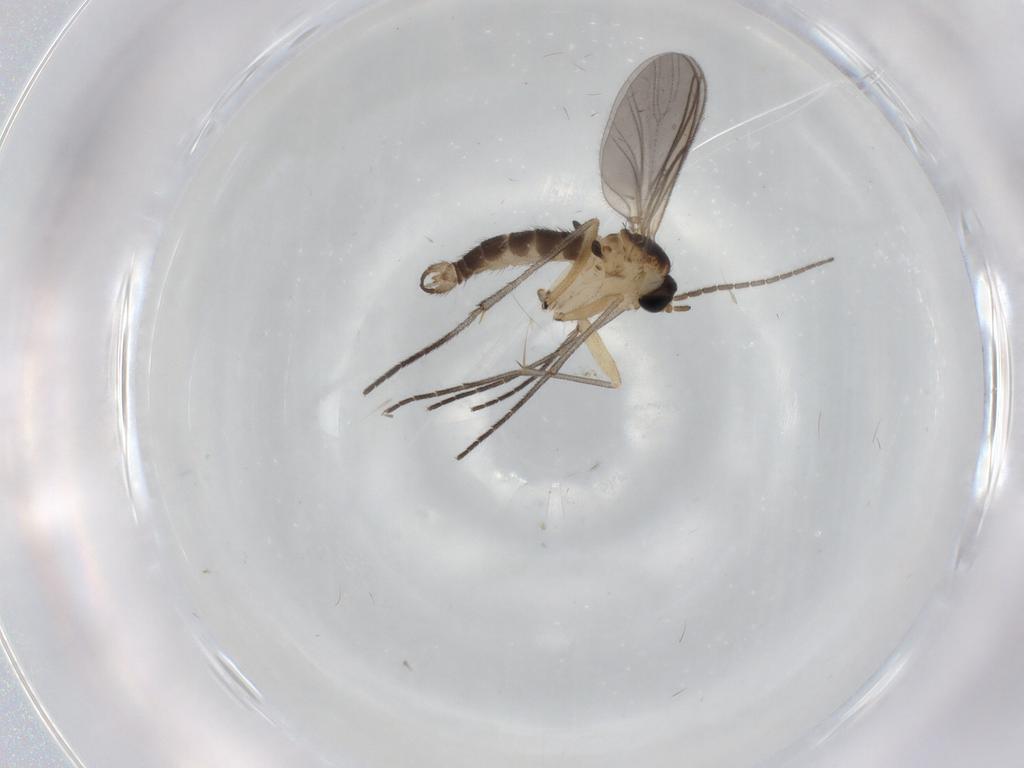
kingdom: Animalia
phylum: Arthropoda
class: Insecta
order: Diptera
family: Sciaridae
